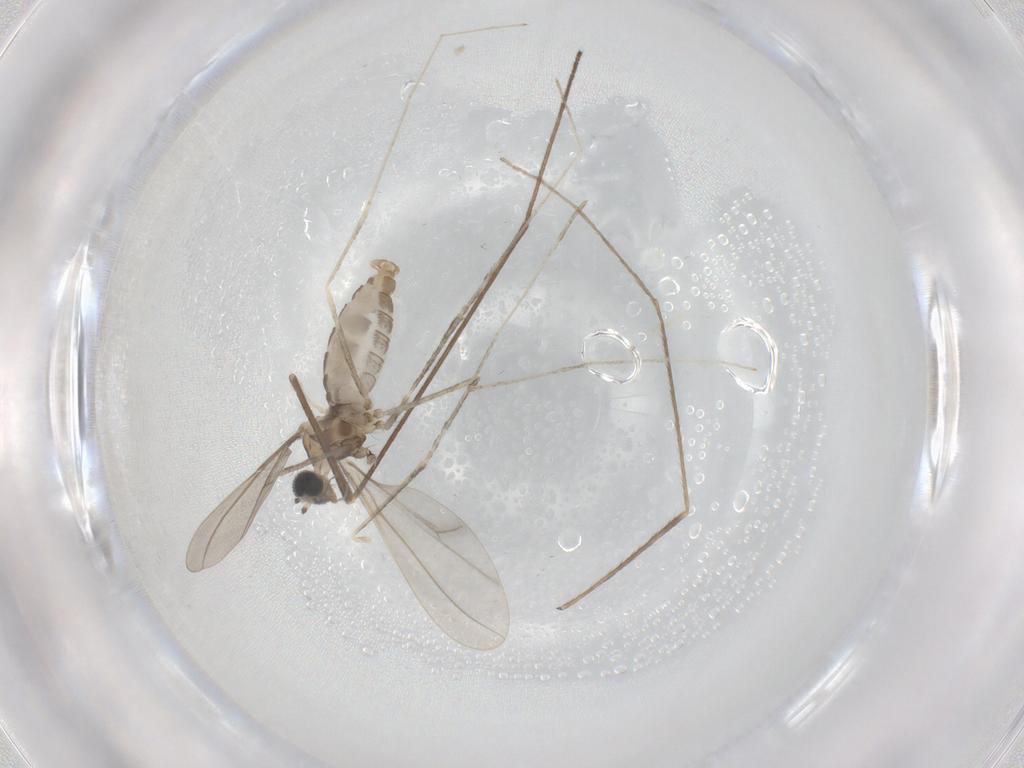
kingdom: Animalia
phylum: Arthropoda
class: Insecta
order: Diptera
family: Cecidomyiidae
